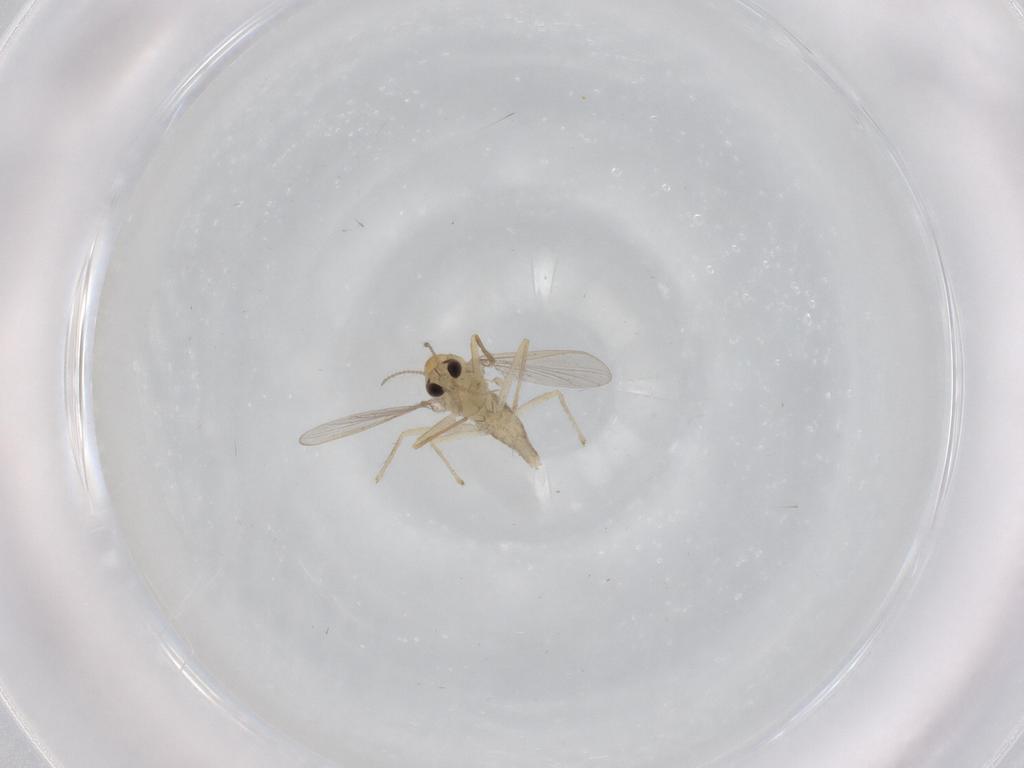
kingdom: Animalia
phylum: Arthropoda
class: Insecta
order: Diptera
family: Chironomidae
